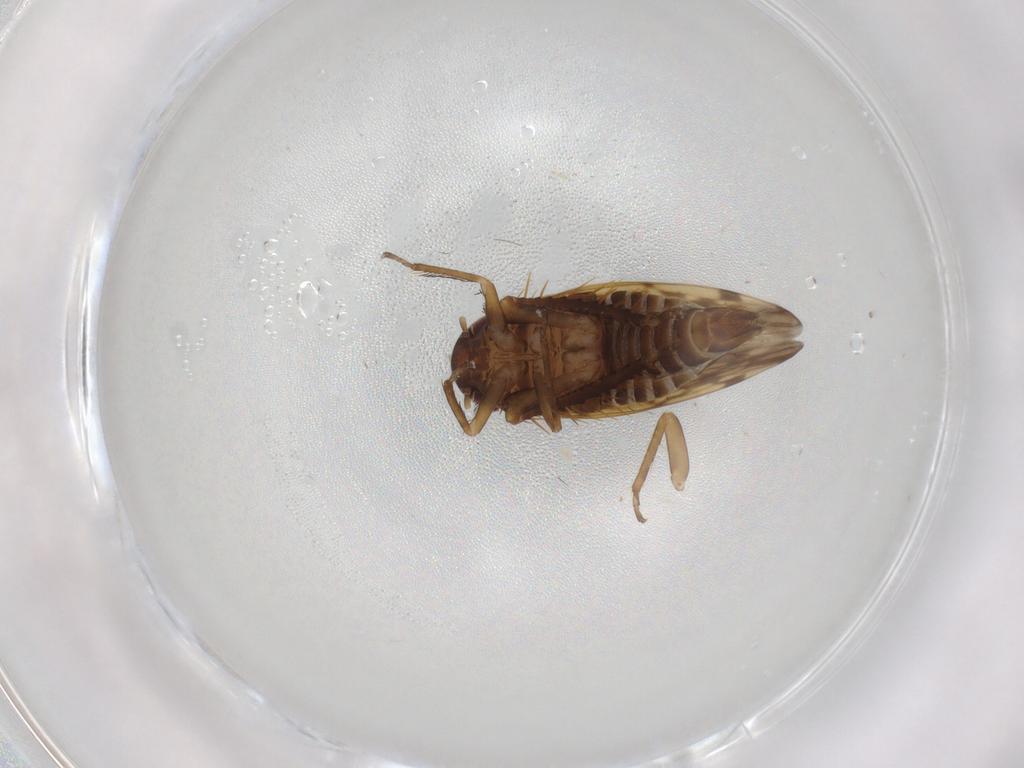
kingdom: Animalia
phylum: Arthropoda
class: Insecta
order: Hemiptera
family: Cicadellidae
